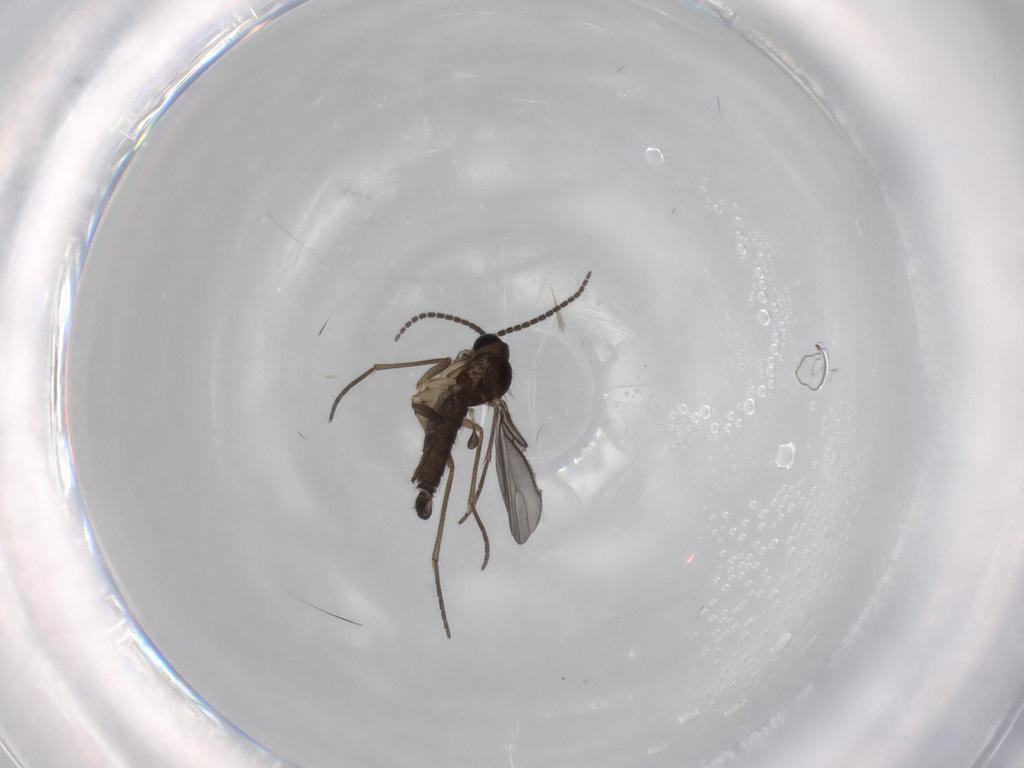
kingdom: Animalia
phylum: Arthropoda
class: Insecta
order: Diptera
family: Sciaridae
